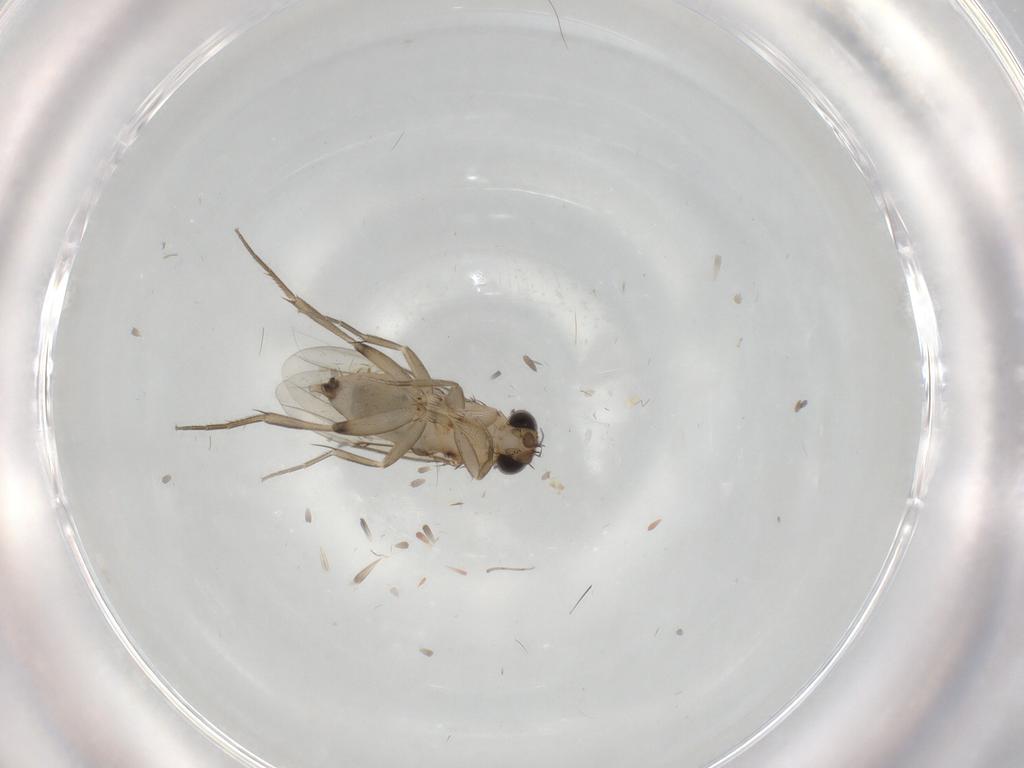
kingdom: Animalia
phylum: Arthropoda
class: Insecta
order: Diptera
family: Phoridae
